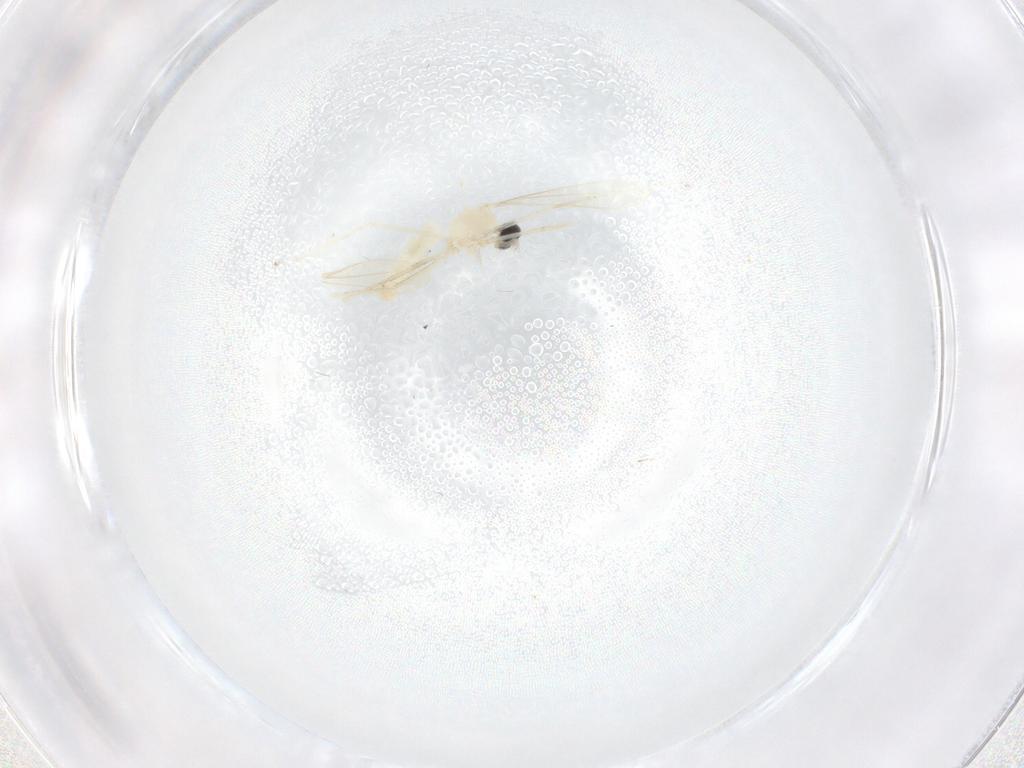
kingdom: Animalia
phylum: Arthropoda
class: Insecta
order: Diptera
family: Cecidomyiidae
